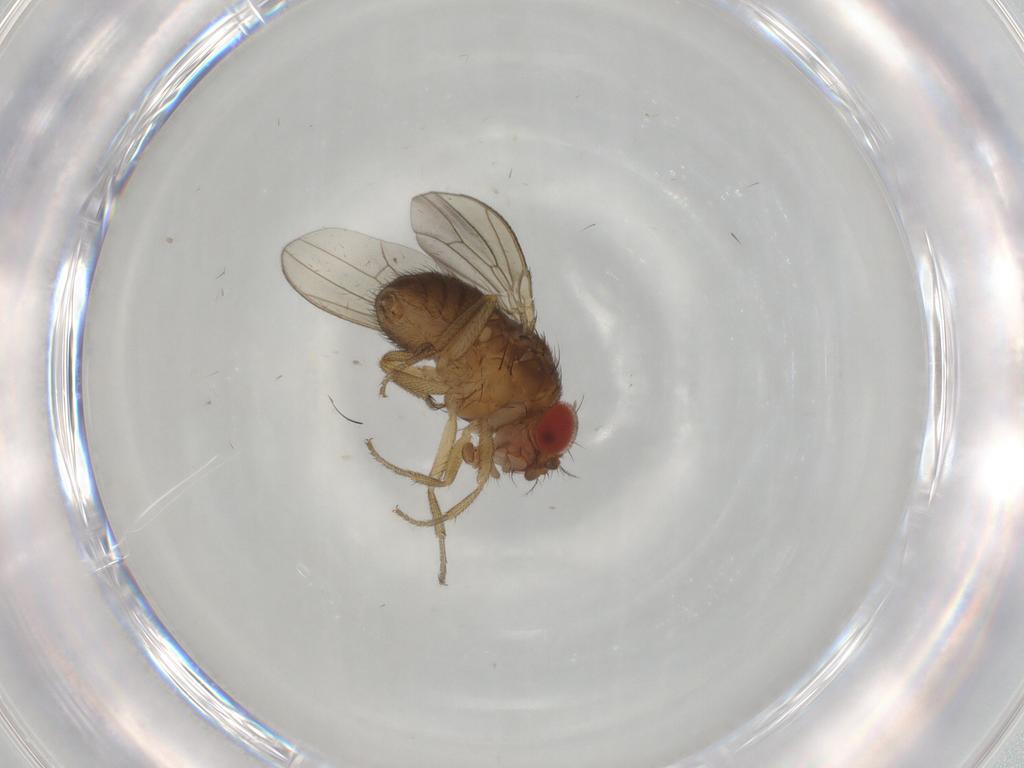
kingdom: Animalia
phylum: Arthropoda
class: Insecta
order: Diptera
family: Drosophilidae
